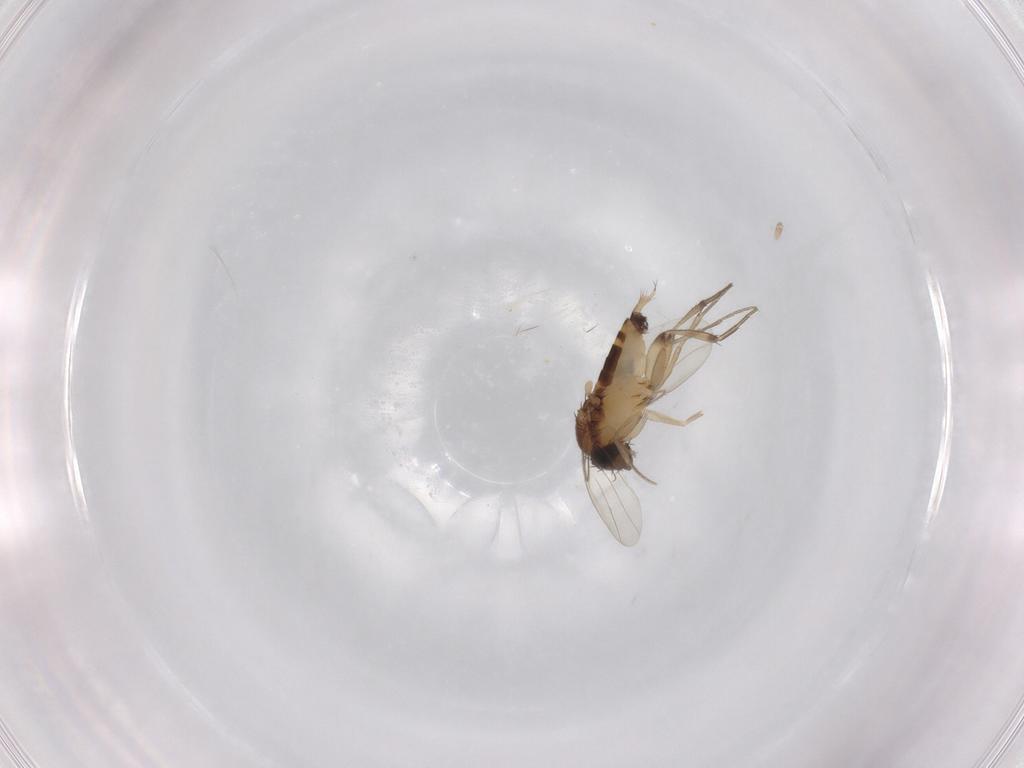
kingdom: Animalia
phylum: Arthropoda
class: Insecta
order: Diptera
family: Phoridae
